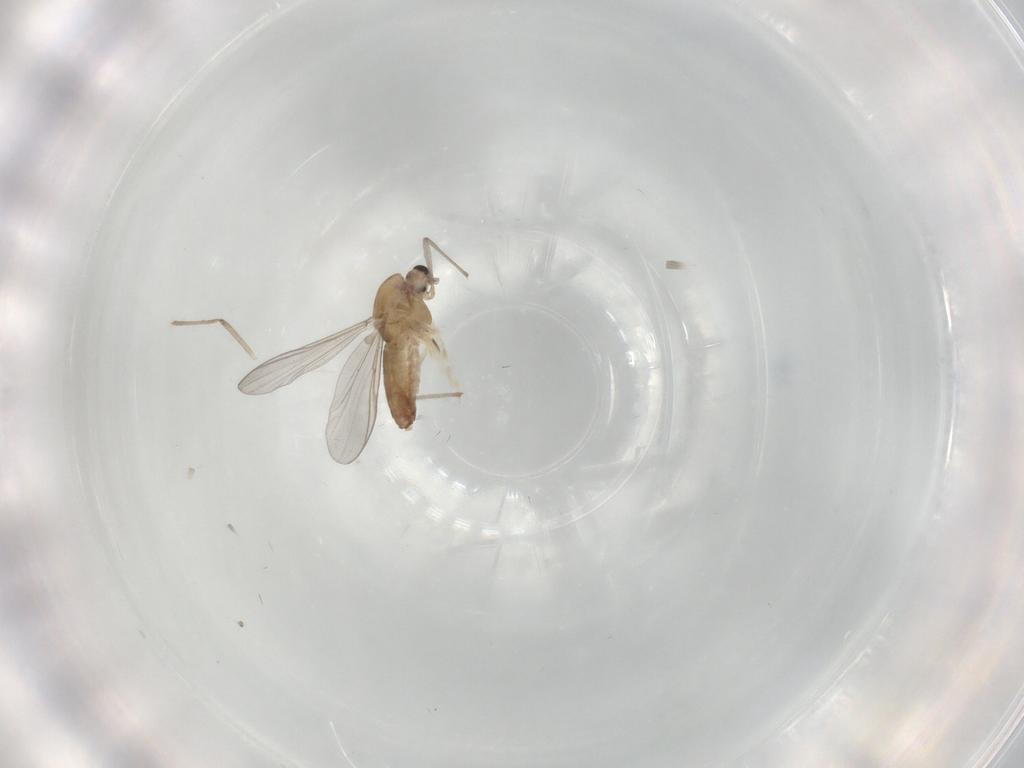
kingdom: Animalia
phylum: Arthropoda
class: Insecta
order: Diptera
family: Chironomidae
